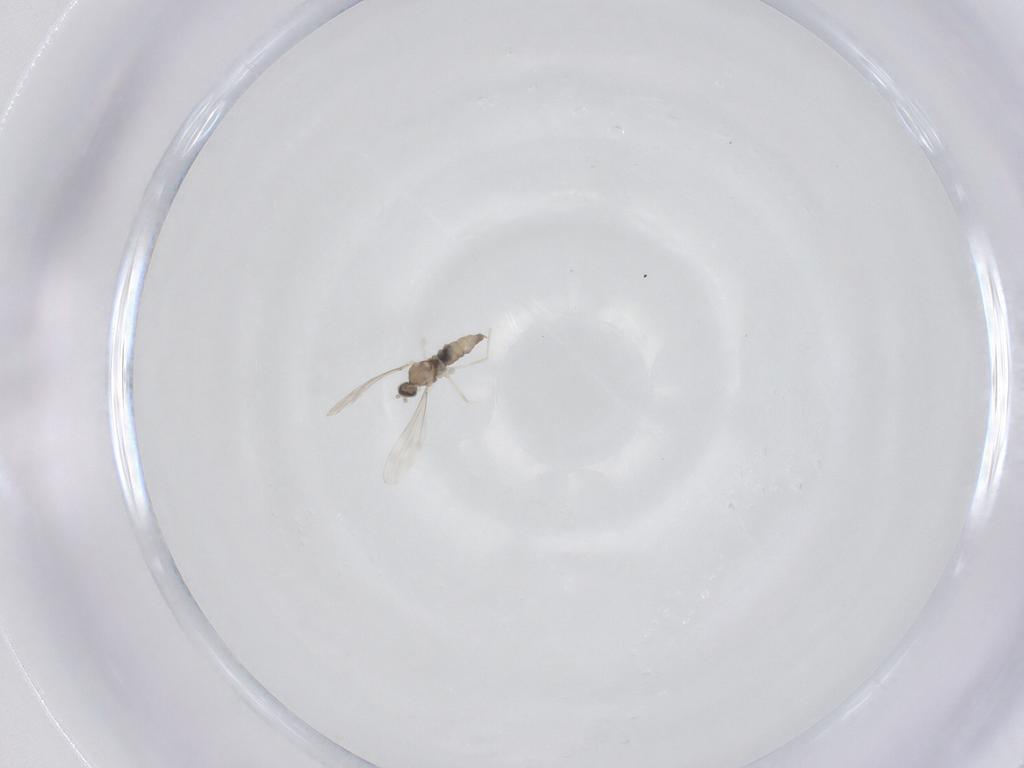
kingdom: Animalia
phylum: Arthropoda
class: Insecta
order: Diptera
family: Cecidomyiidae
